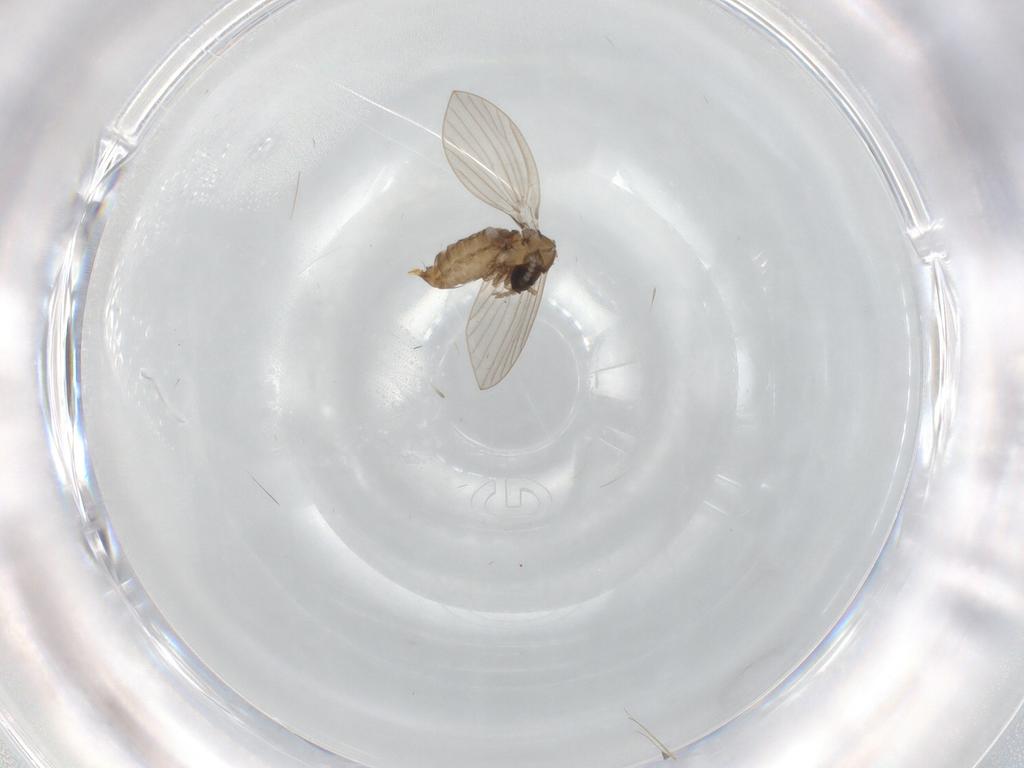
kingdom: Animalia
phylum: Arthropoda
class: Insecta
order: Diptera
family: Psychodidae
